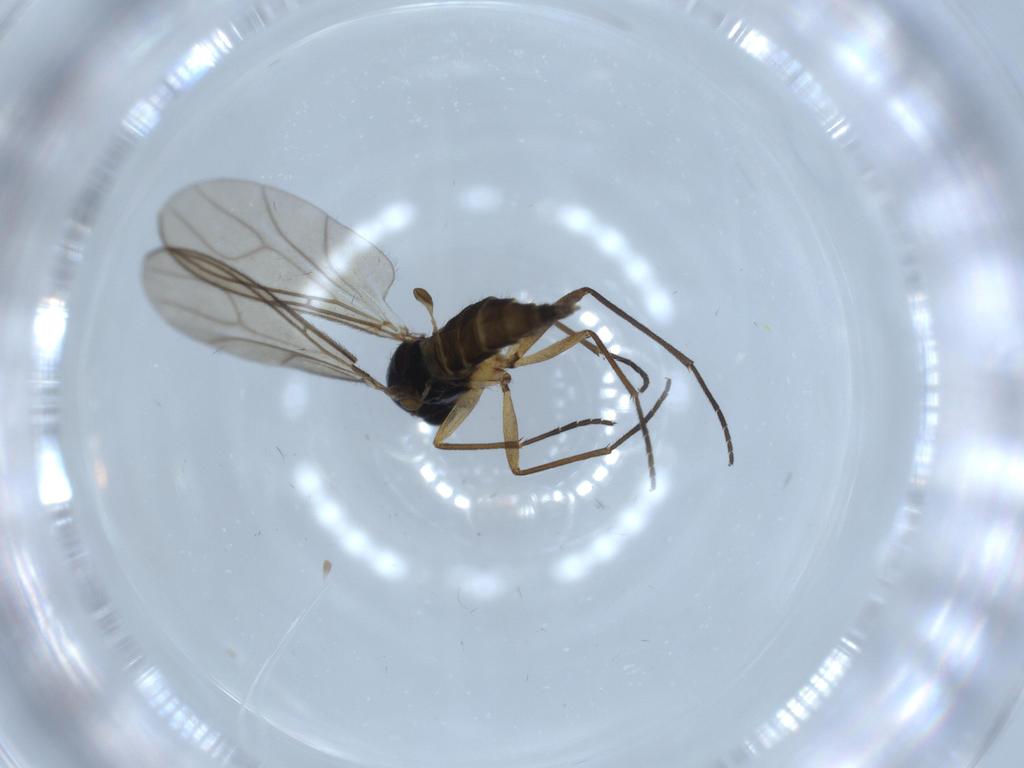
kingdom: Animalia
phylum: Arthropoda
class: Insecta
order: Diptera
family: Sciaridae
